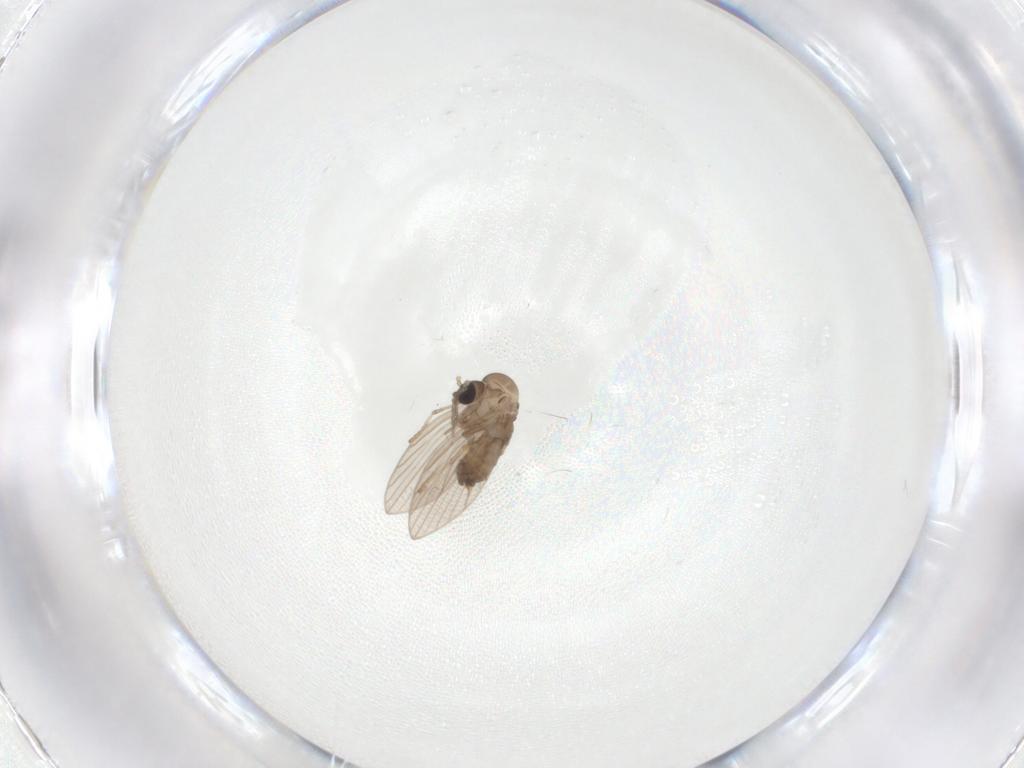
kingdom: Animalia
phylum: Arthropoda
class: Insecta
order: Diptera
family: Psychodidae
